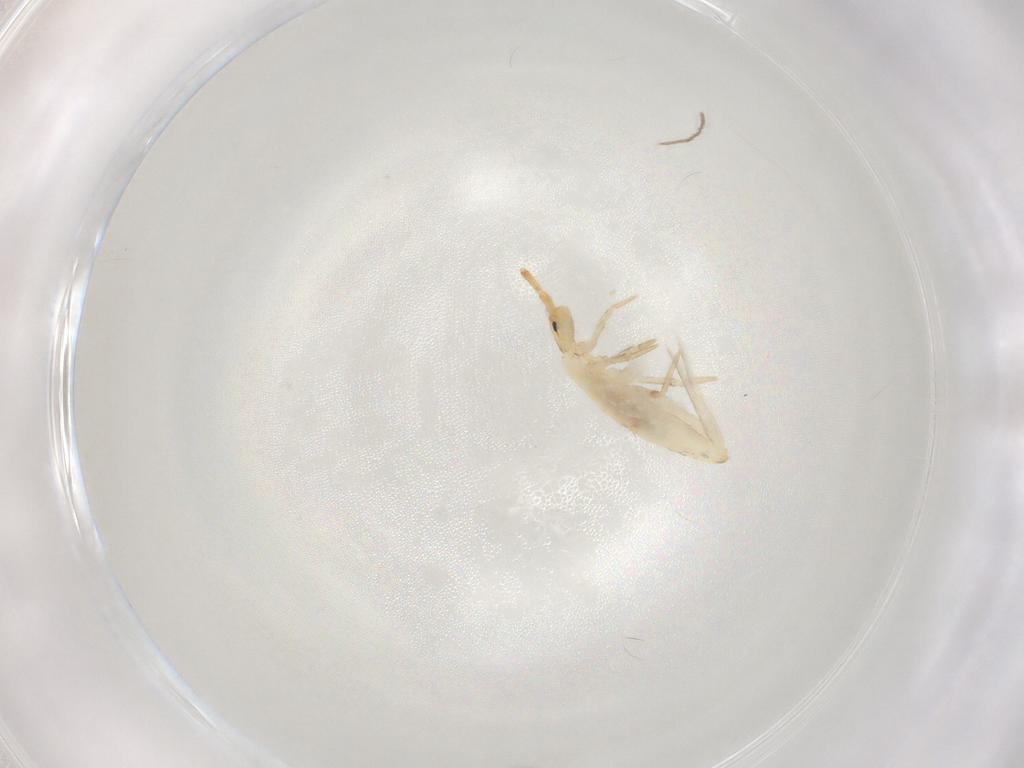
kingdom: Animalia
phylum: Arthropoda
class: Collembola
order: Poduromorpha
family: Hypogastruridae
